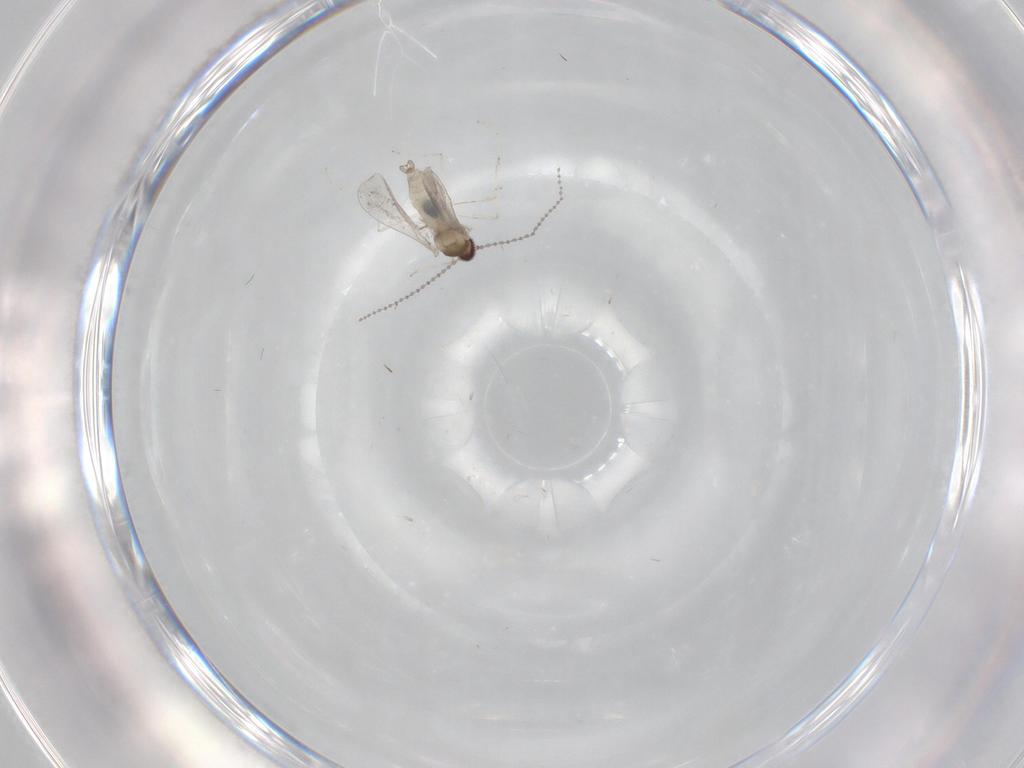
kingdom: Animalia
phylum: Arthropoda
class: Insecta
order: Diptera
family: Cecidomyiidae
